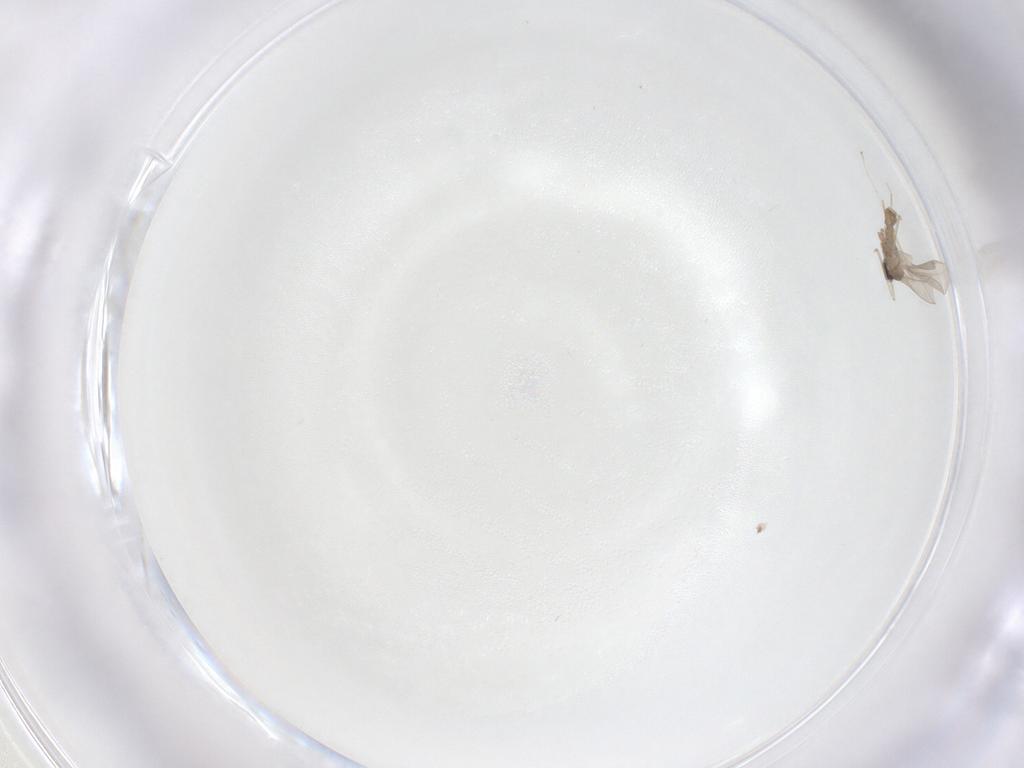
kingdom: Animalia
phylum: Arthropoda
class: Insecta
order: Diptera
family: Cecidomyiidae
